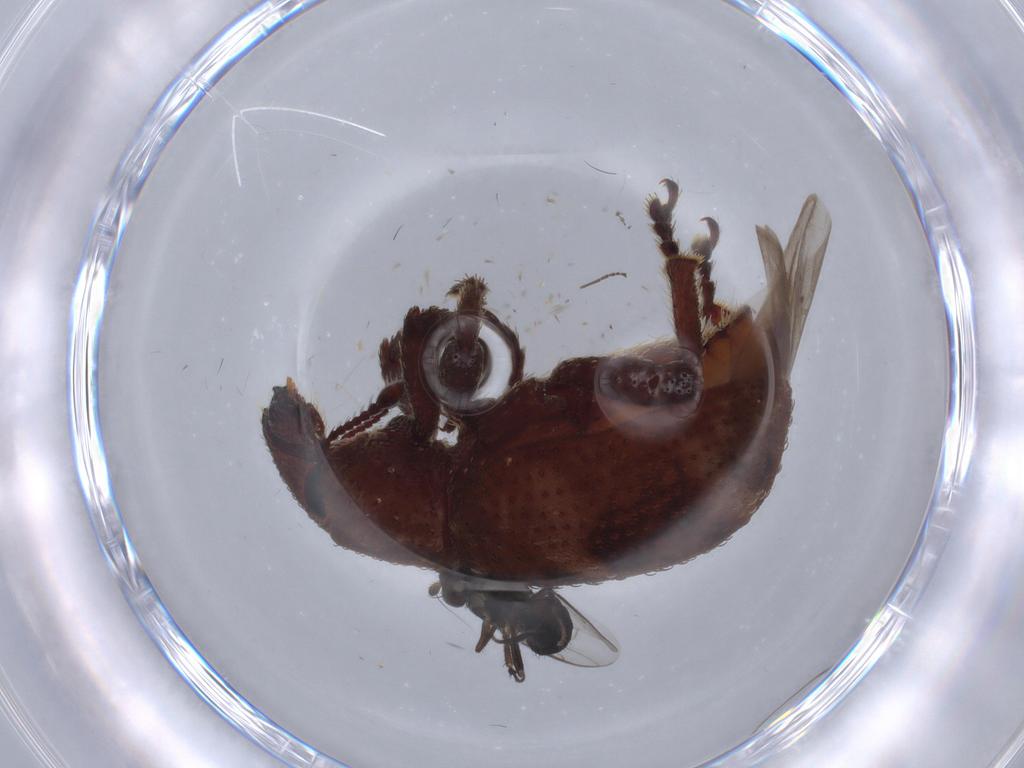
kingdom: Animalia
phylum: Arthropoda
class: Insecta
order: Coleoptera
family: Curculionidae
